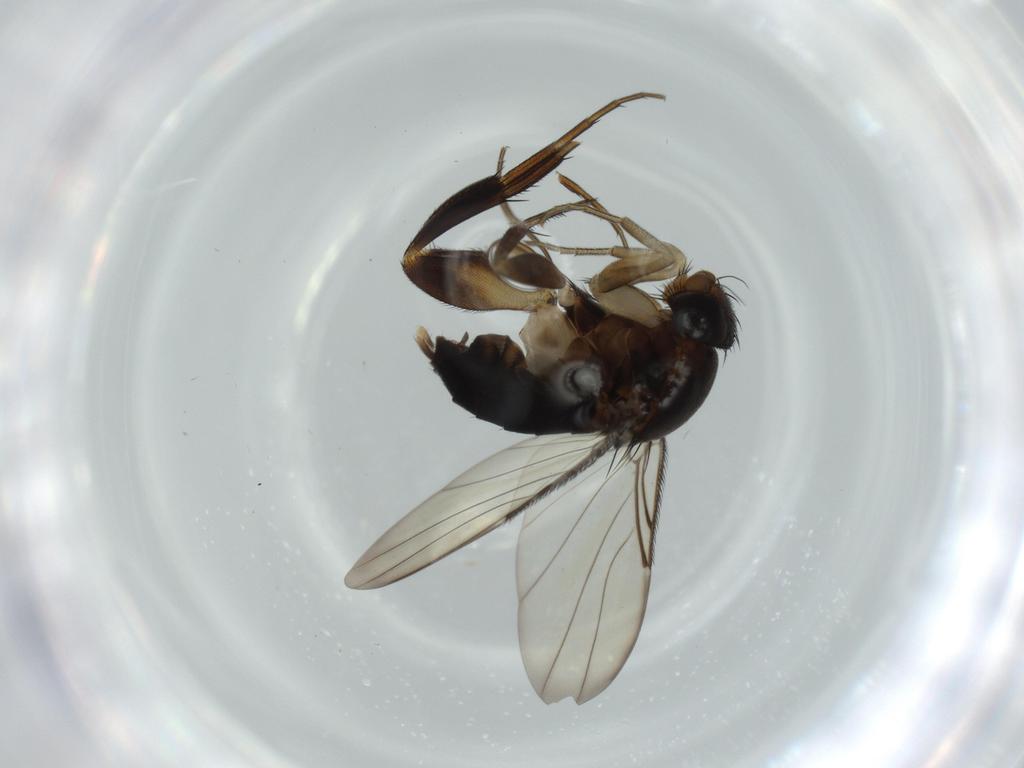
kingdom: Animalia
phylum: Arthropoda
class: Insecta
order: Diptera
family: Phoridae
